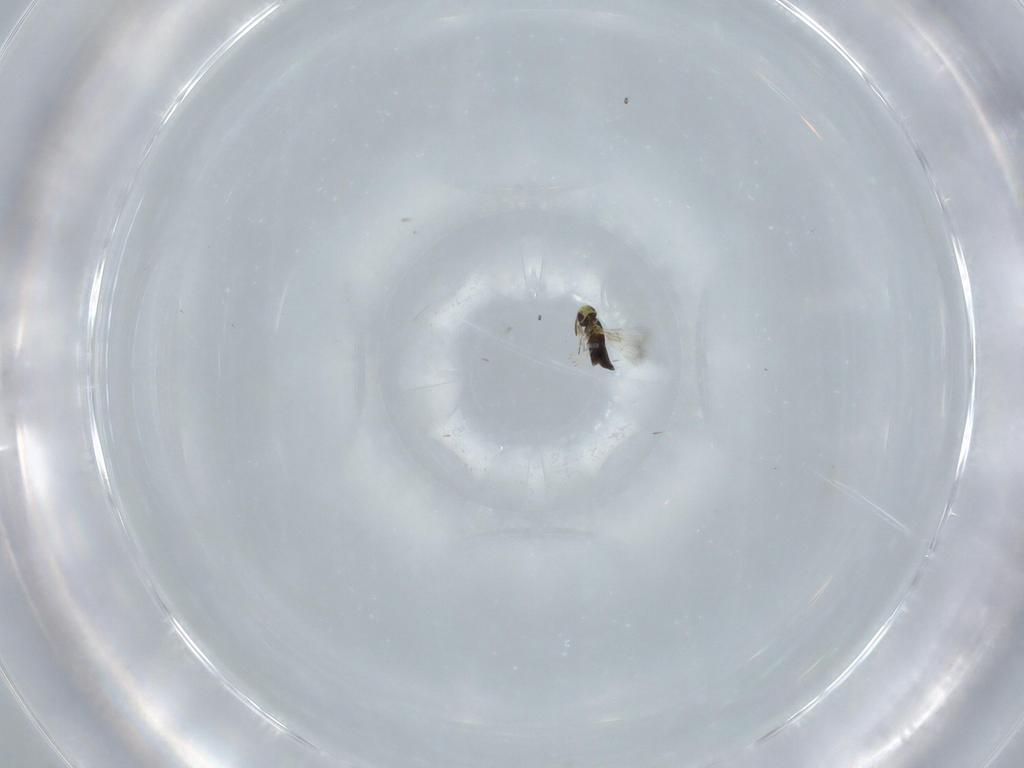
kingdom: Animalia
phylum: Arthropoda
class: Insecta
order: Hymenoptera
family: Signiphoridae
